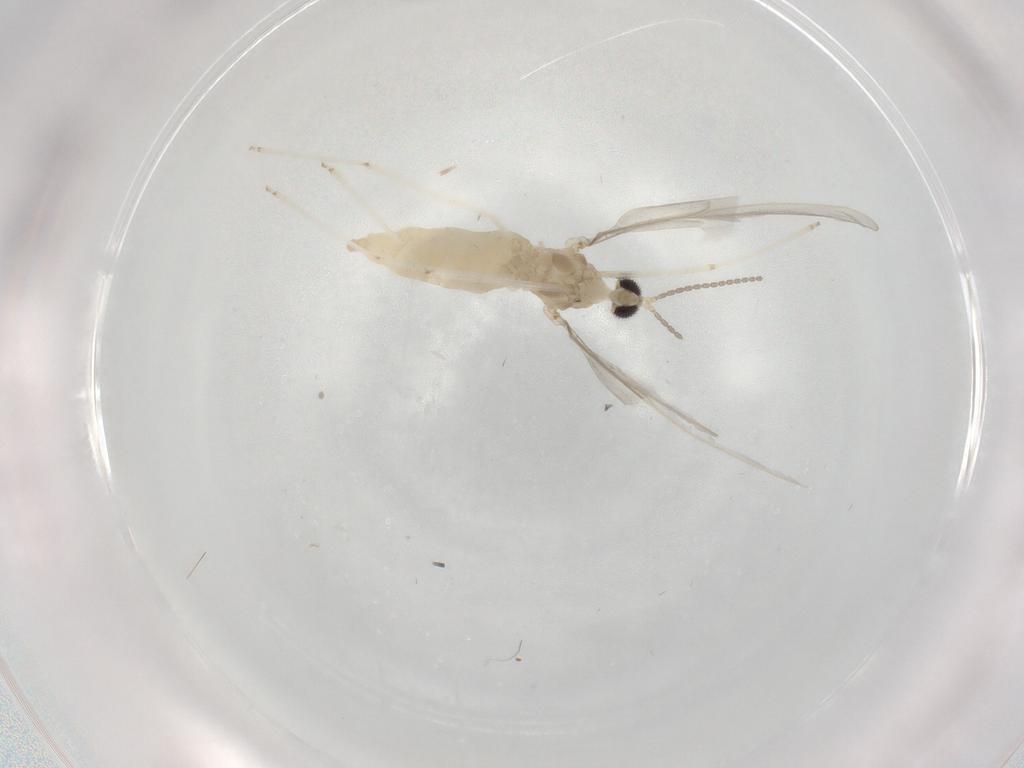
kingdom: Animalia
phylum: Arthropoda
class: Insecta
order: Diptera
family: Cecidomyiidae
